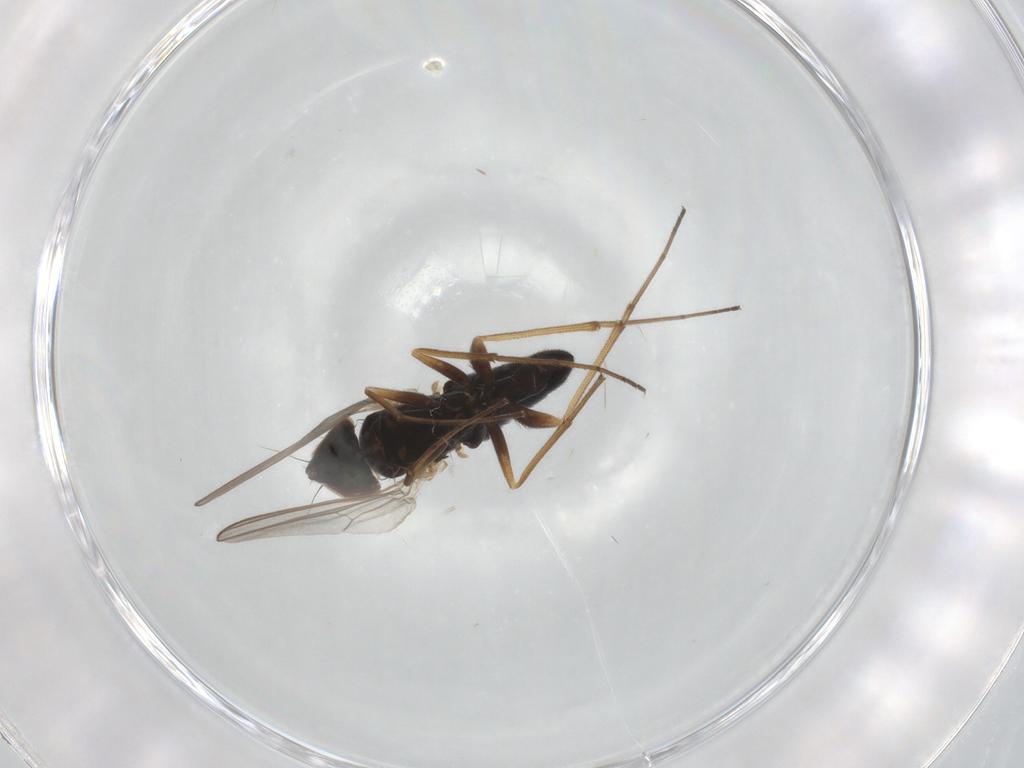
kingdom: Animalia
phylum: Arthropoda
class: Insecta
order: Diptera
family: Dolichopodidae
